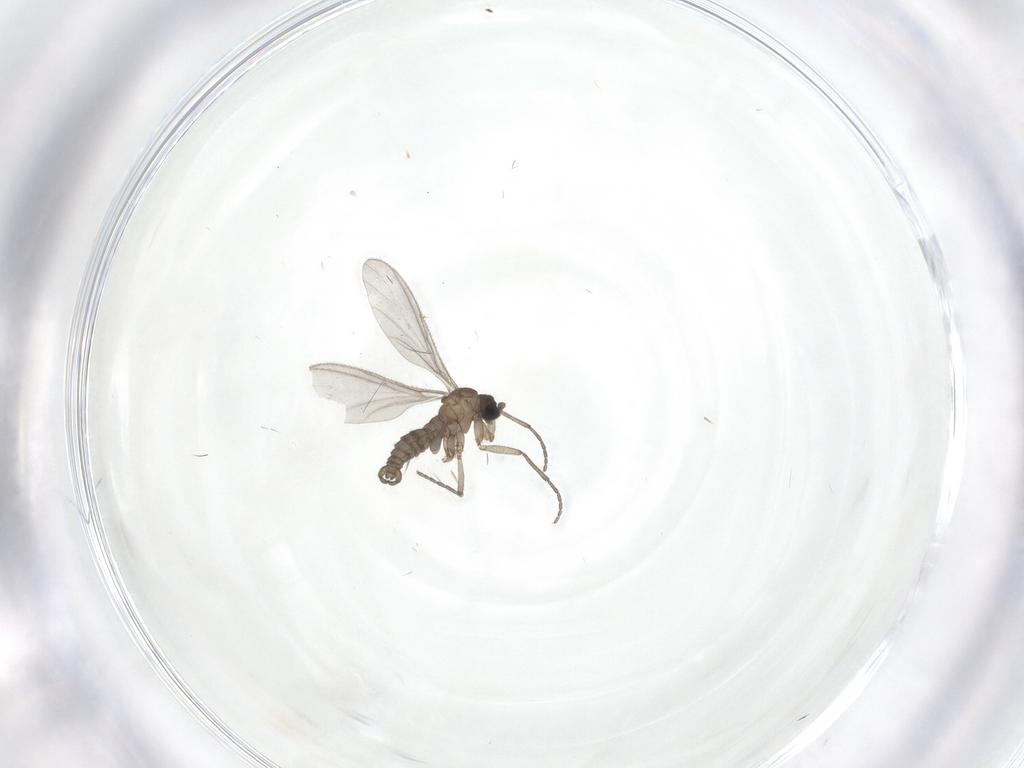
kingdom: Animalia
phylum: Arthropoda
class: Insecta
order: Diptera
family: Sciaridae
